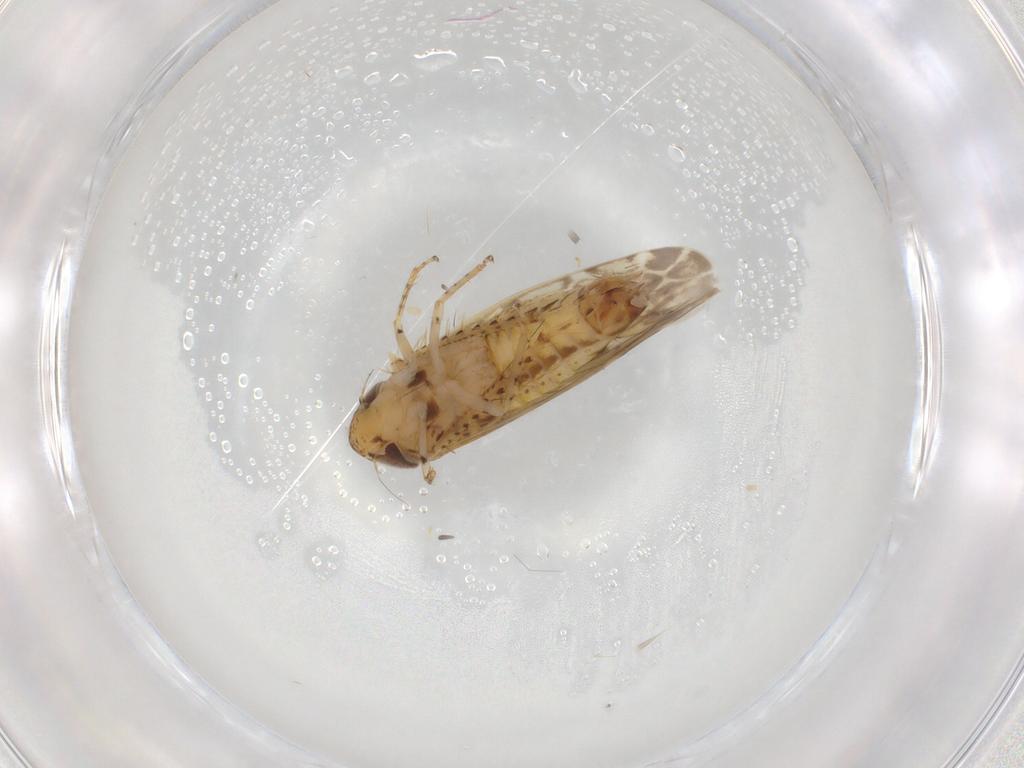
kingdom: Animalia
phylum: Arthropoda
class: Insecta
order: Hemiptera
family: Cicadellidae
